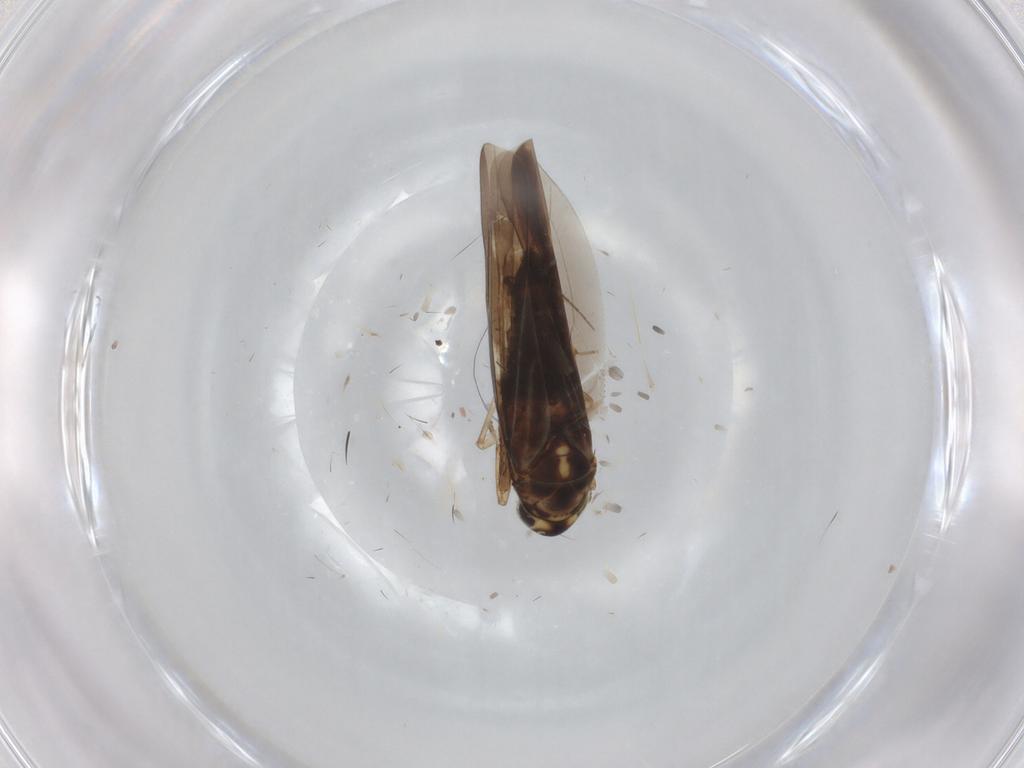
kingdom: Animalia
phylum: Arthropoda
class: Insecta
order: Hemiptera
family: Cicadellidae
